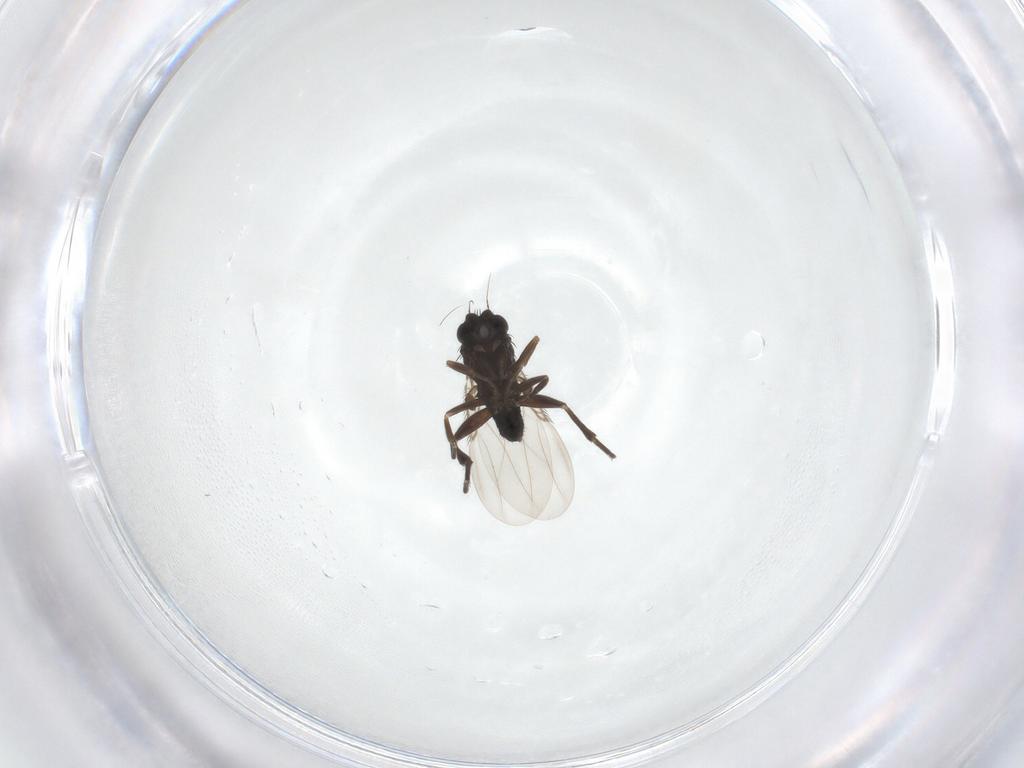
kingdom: Animalia
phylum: Arthropoda
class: Insecta
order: Diptera
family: Phoridae
